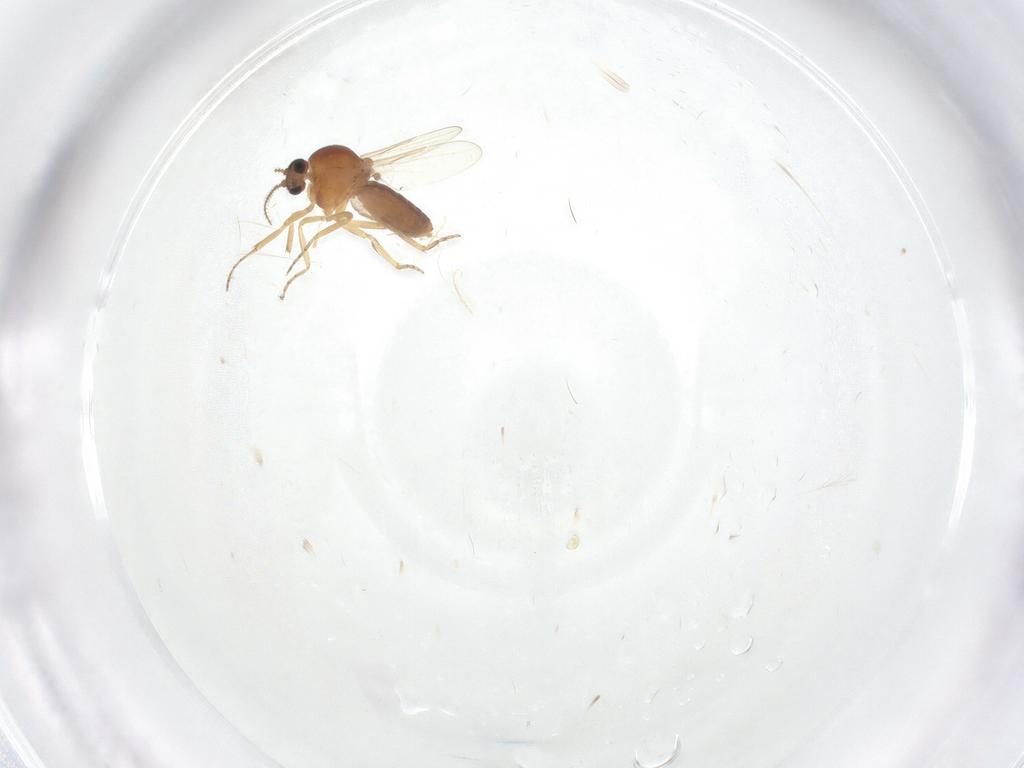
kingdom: Animalia
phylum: Arthropoda
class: Insecta
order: Diptera
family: Ceratopogonidae
